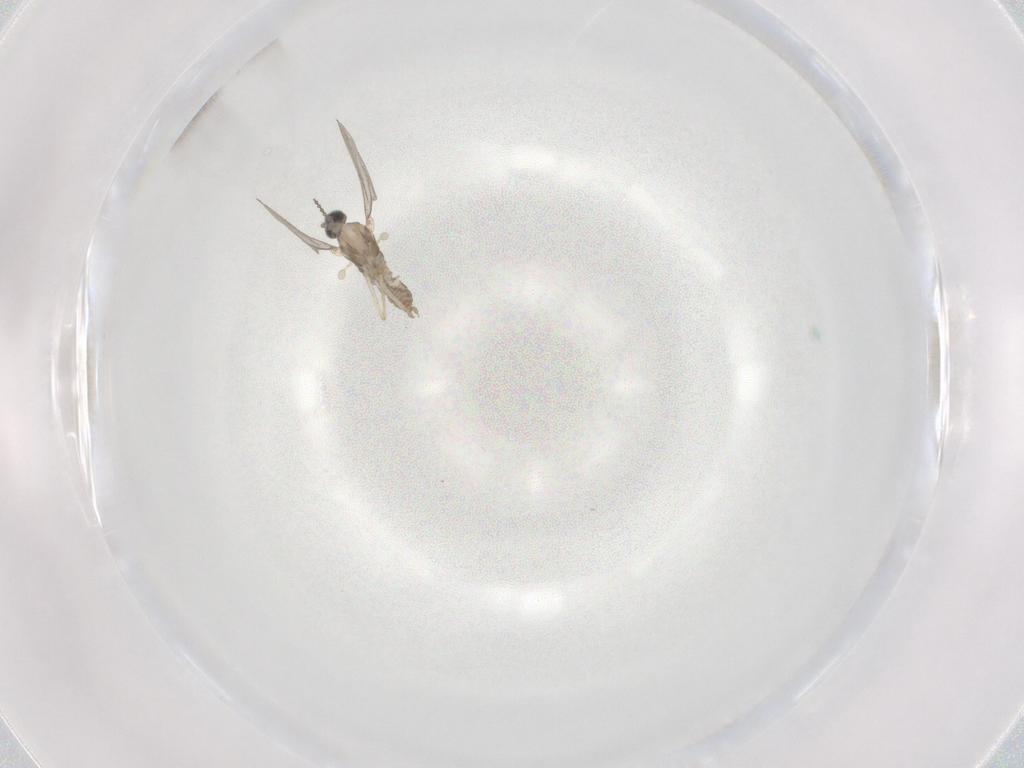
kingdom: Animalia
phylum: Arthropoda
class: Insecta
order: Diptera
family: Cecidomyiidae
